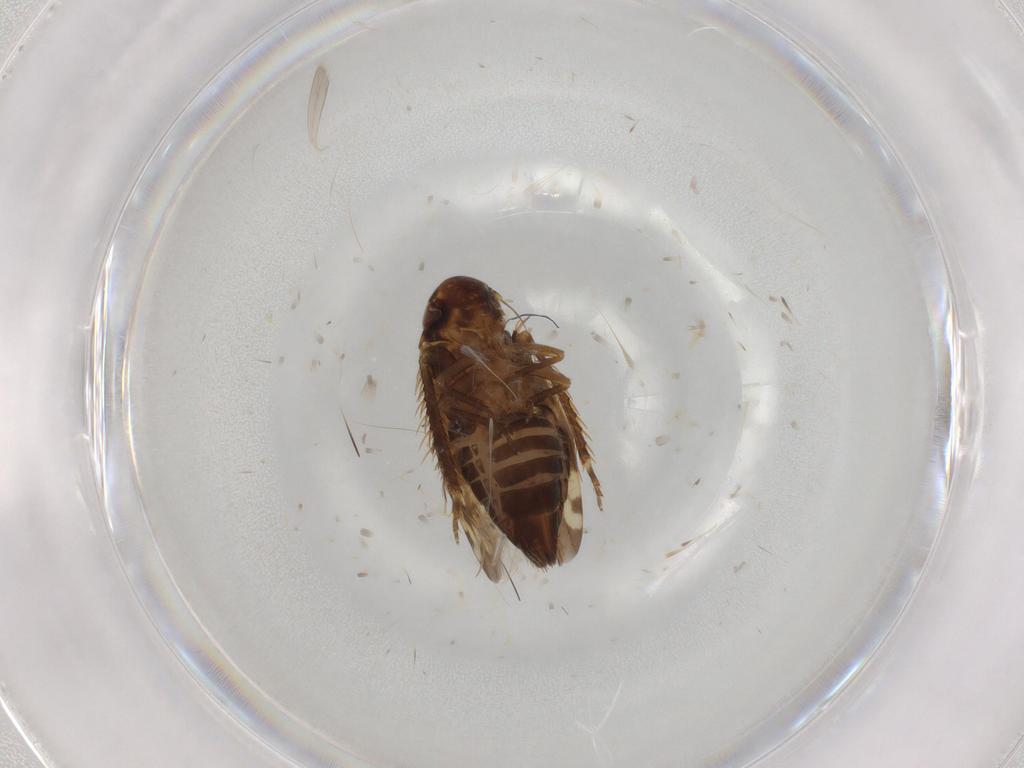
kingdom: Animalia
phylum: Arthropoda
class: Insecta
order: Hemiptera
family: Cicadellidae
